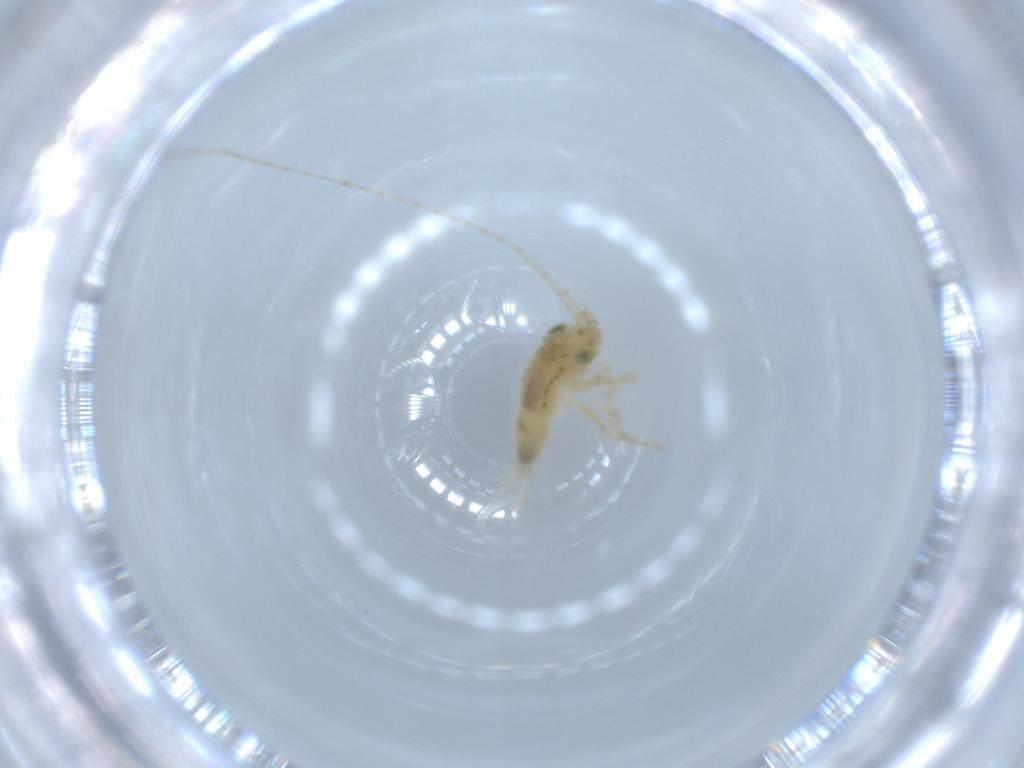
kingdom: Animalia
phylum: Arthropoda
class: Insecta
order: Orthoptera
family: Trigonidiidae
